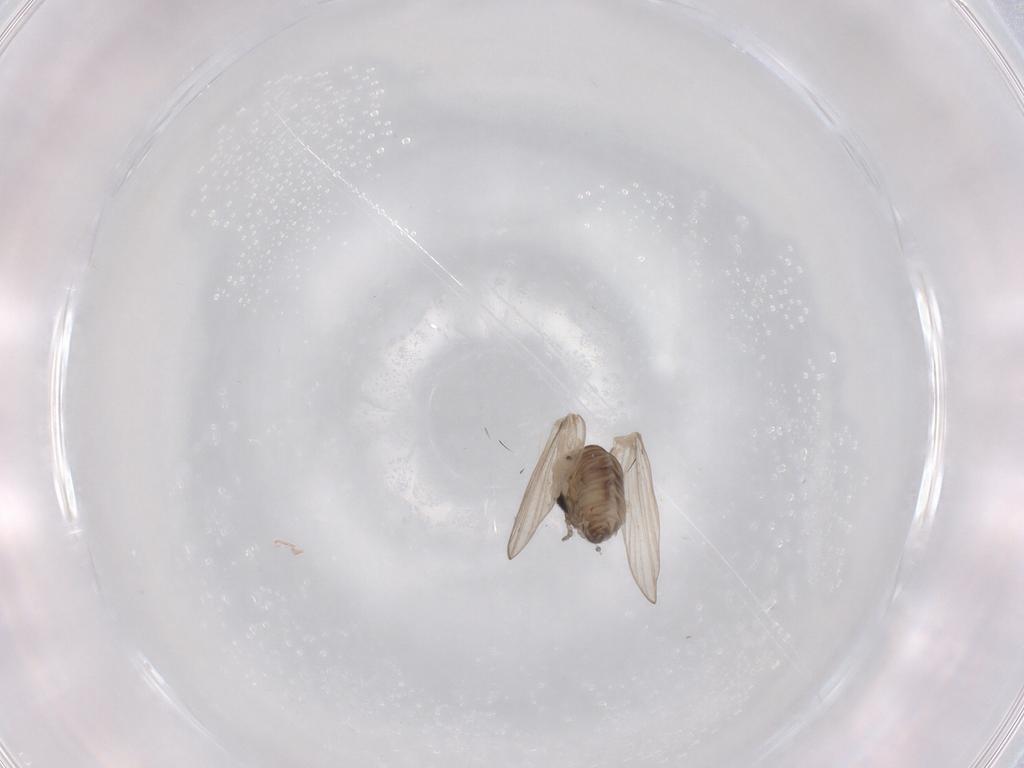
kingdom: Animalia
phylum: Arthropoda
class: Insecta
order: Diptera
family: Psychodidae
